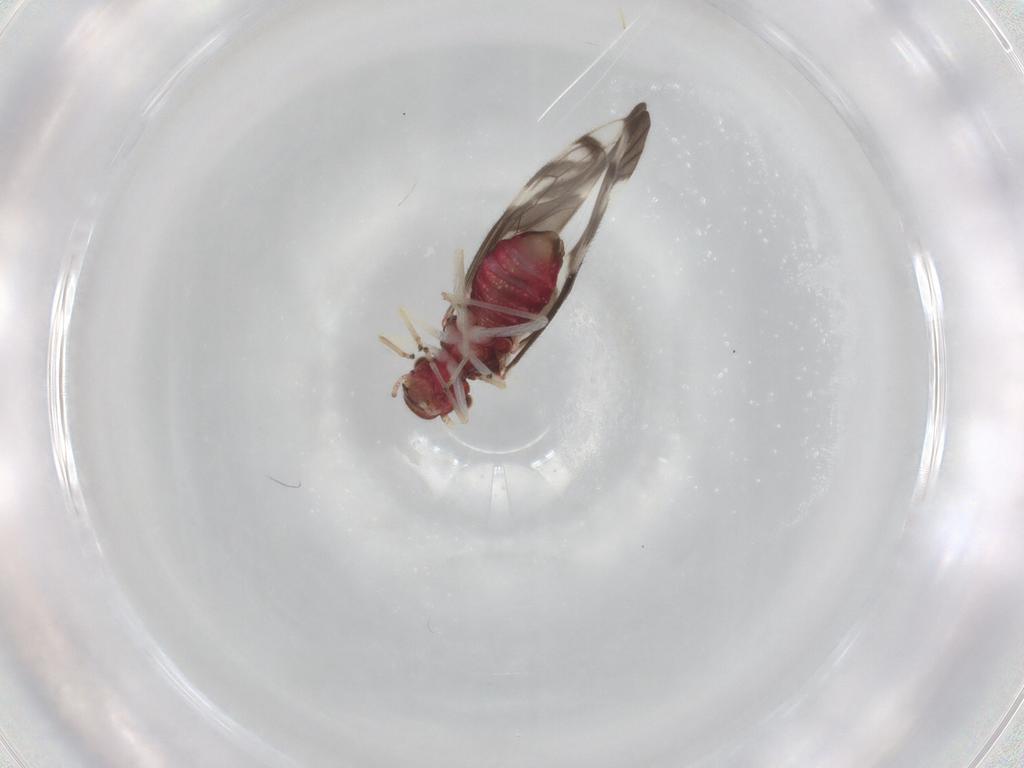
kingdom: Animalia
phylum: Arthropoda
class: Insecta
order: Psocodea
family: Caeciliusidae
